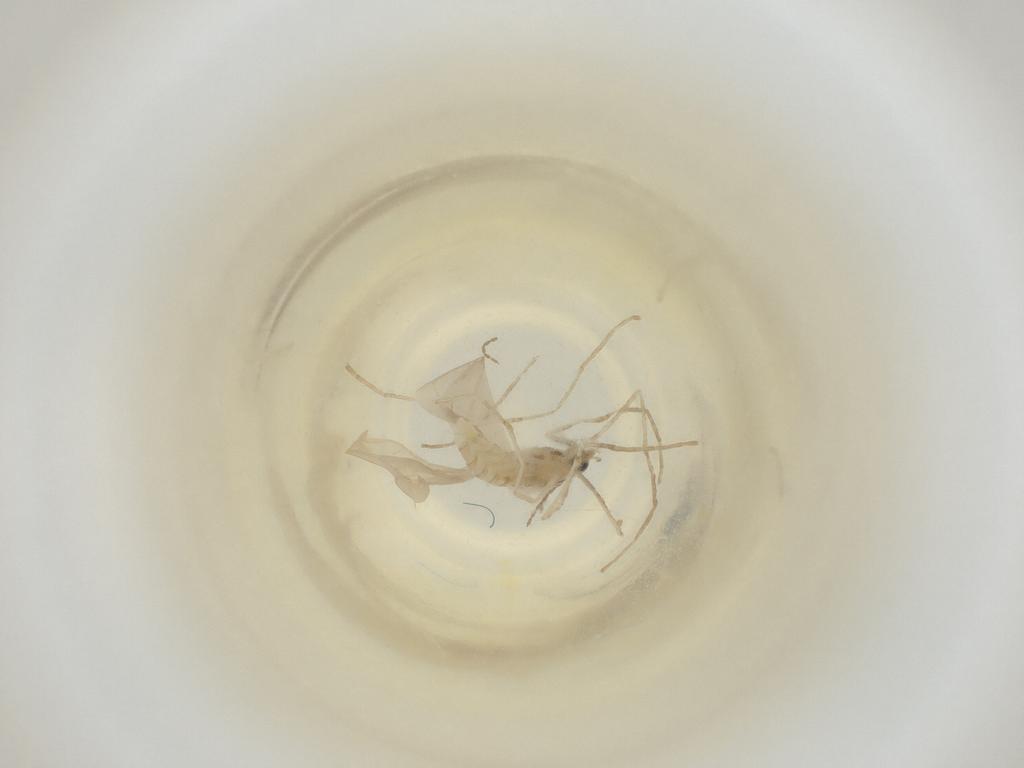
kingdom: Animalia
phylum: Arthropoda
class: Insecta
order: Diptera
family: Cecidomyiidae
